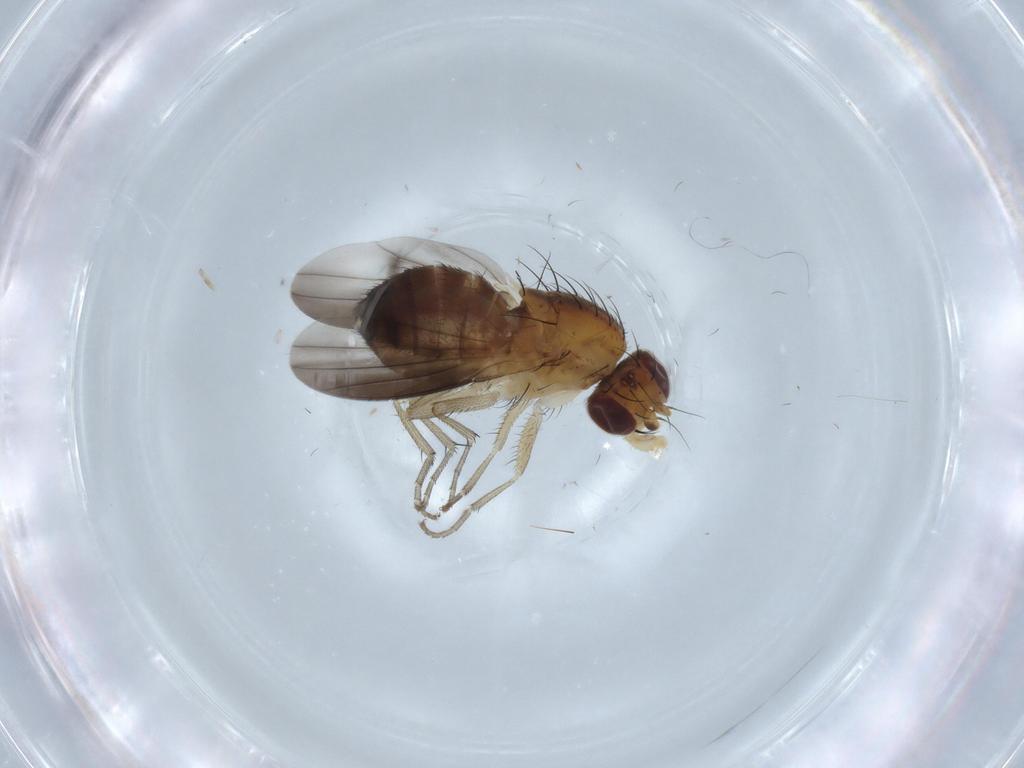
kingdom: Animalia
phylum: Arthropoda
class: Insecta
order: Diptera
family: Heleomyzidae
